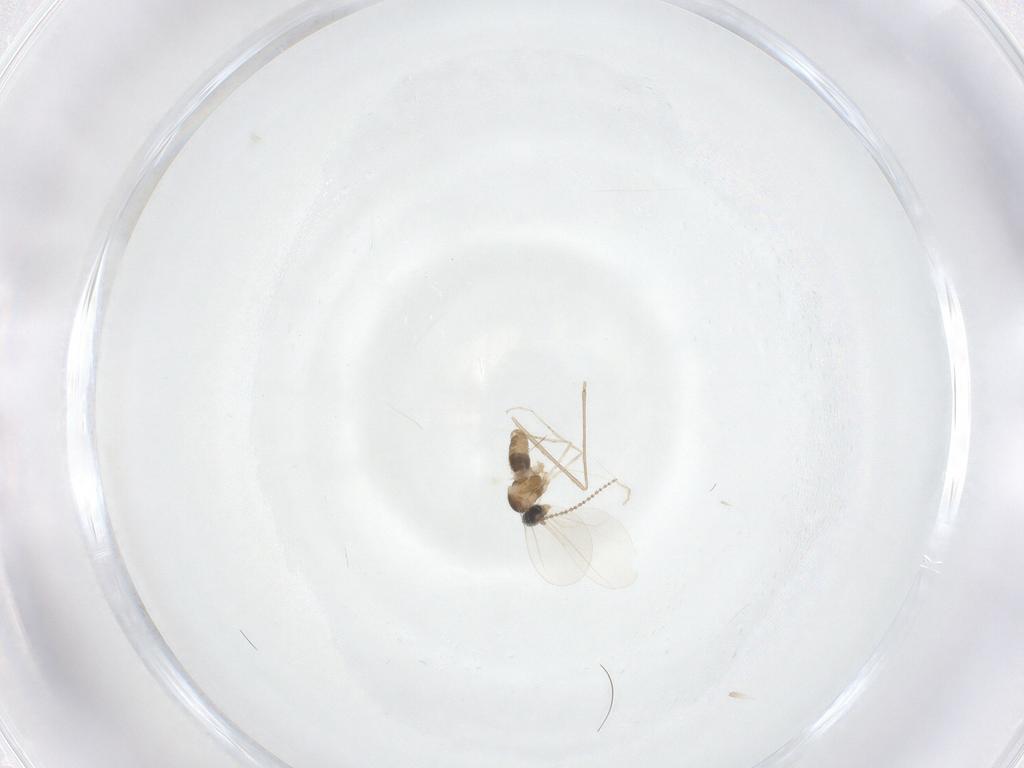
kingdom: Animalia
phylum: Arthropoda
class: Insecta
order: Diptera
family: Cecidomyiidae
